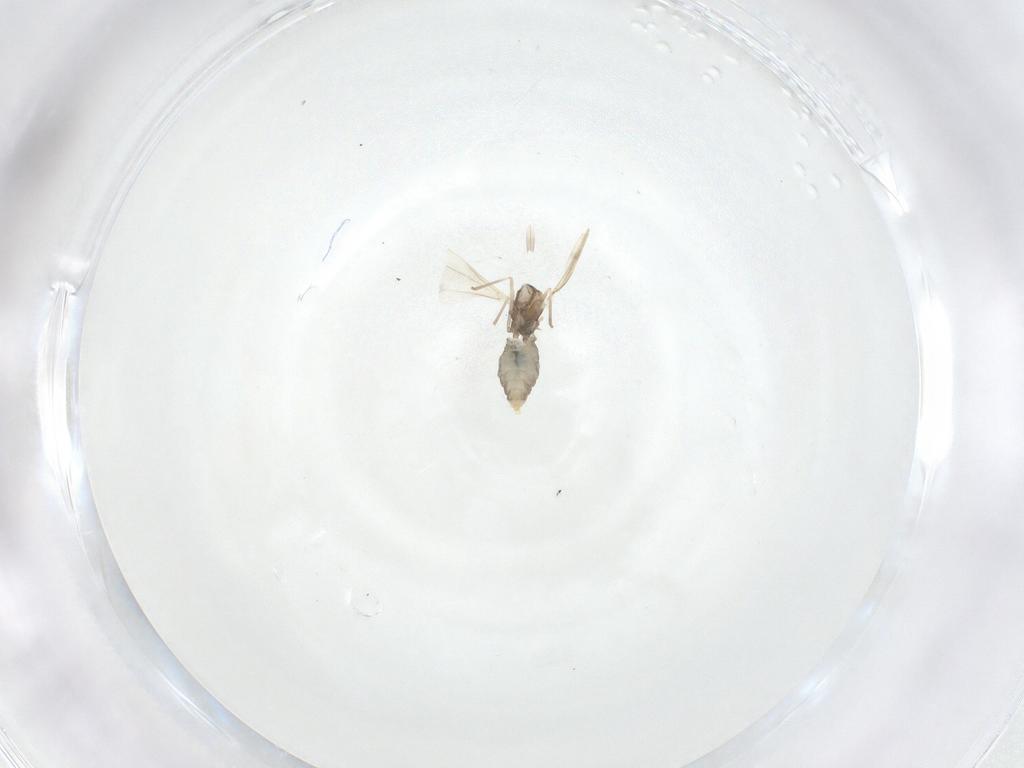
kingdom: Animalia
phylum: Arthropoda
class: Insecta
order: Diptera
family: Cecidomyiidae
